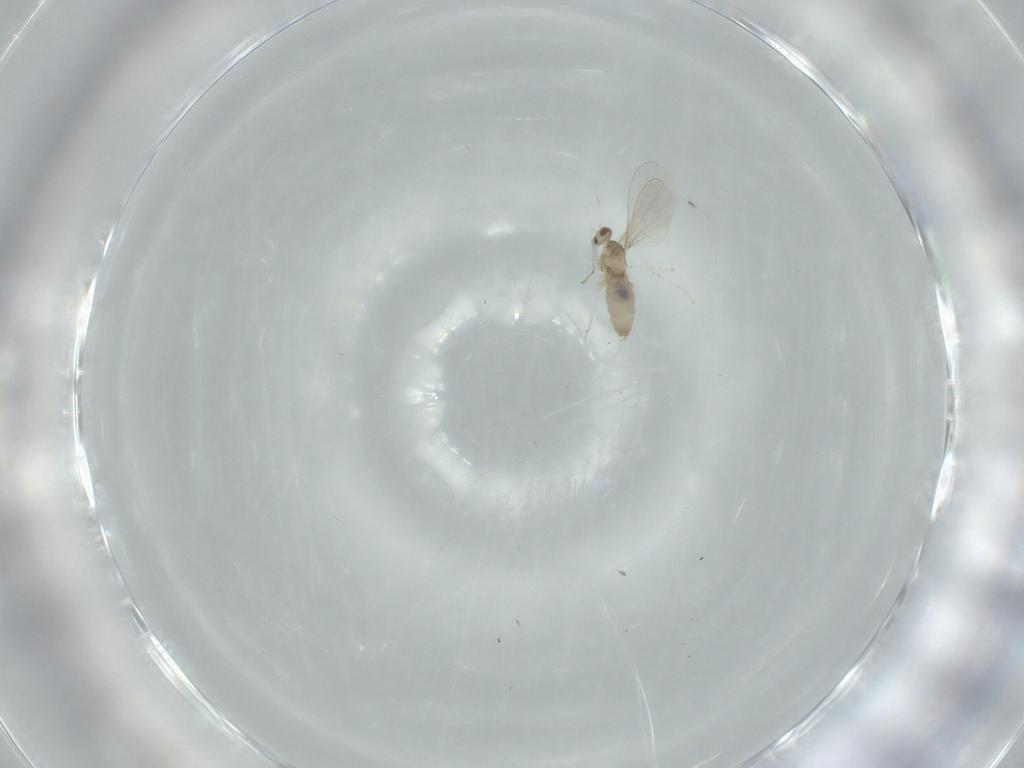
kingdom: Animalia
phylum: Arthropoda
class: Insecta
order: Diptera
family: Cecidomyiidae
